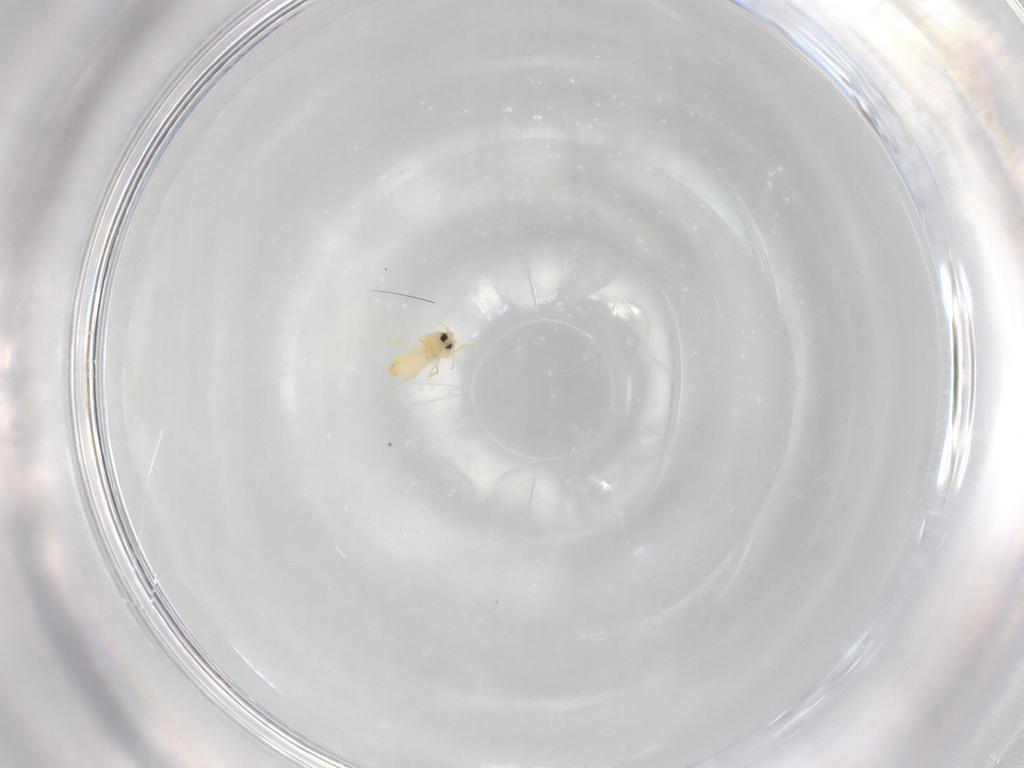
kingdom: Animalia
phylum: Arthropoda
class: Insecta
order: Hemiptera
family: Aleyrodidae
